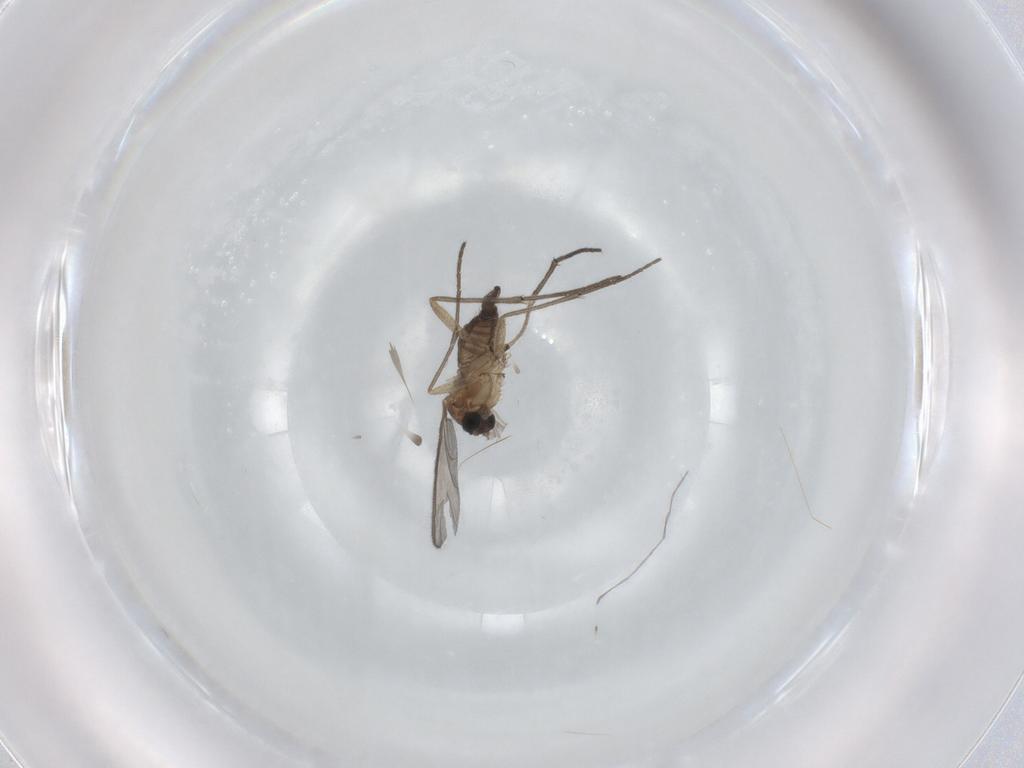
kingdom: Animalia
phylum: Arthropoda
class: Insecta
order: Diptera
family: Sciaridae
